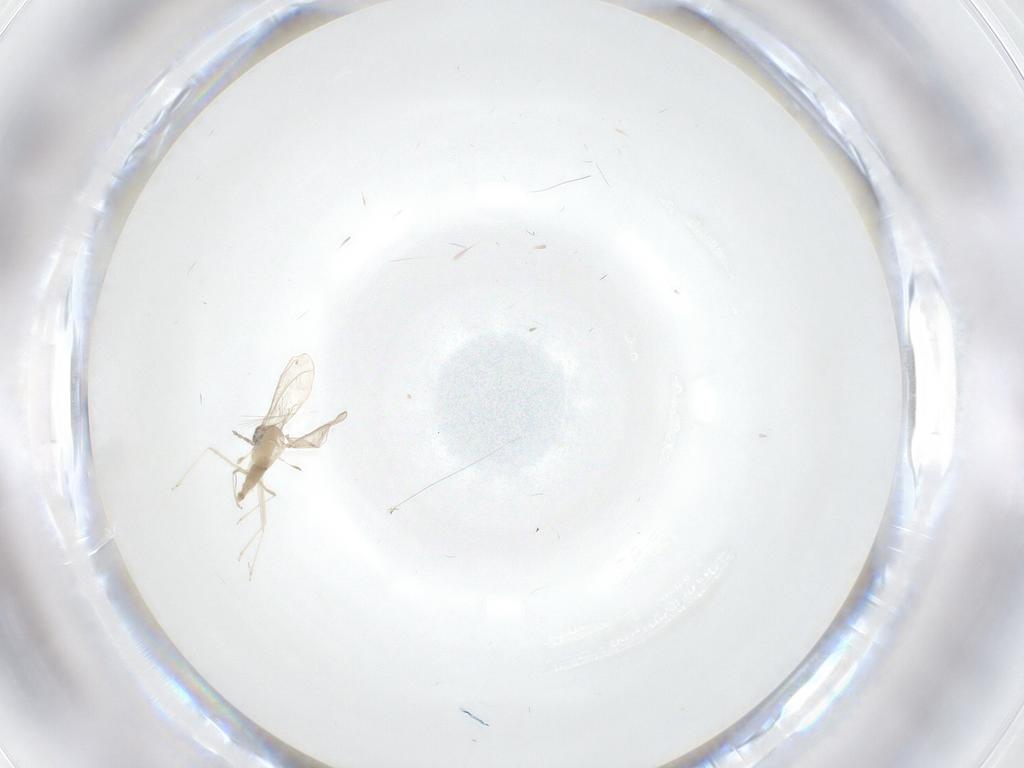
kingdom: Animalia
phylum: Arthropoda
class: Insecta
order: Diptera
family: Cecidomyiidae
